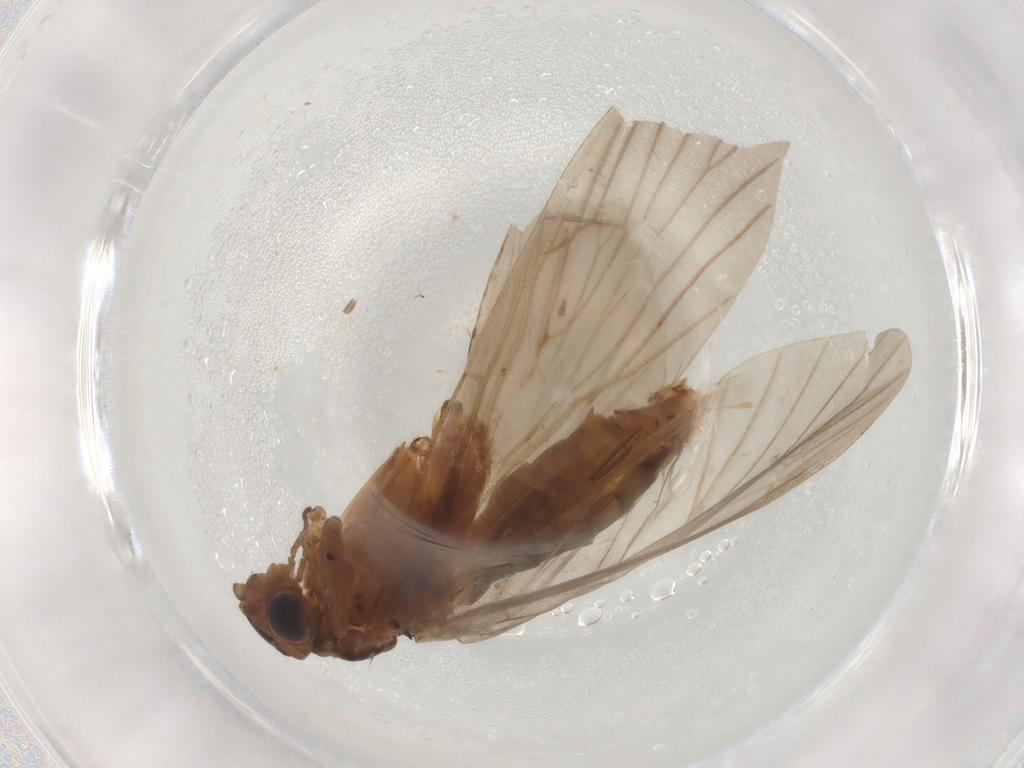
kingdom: Animalia
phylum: Arthropoda
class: Insecta
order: Trichoptera
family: Philopotamidae
